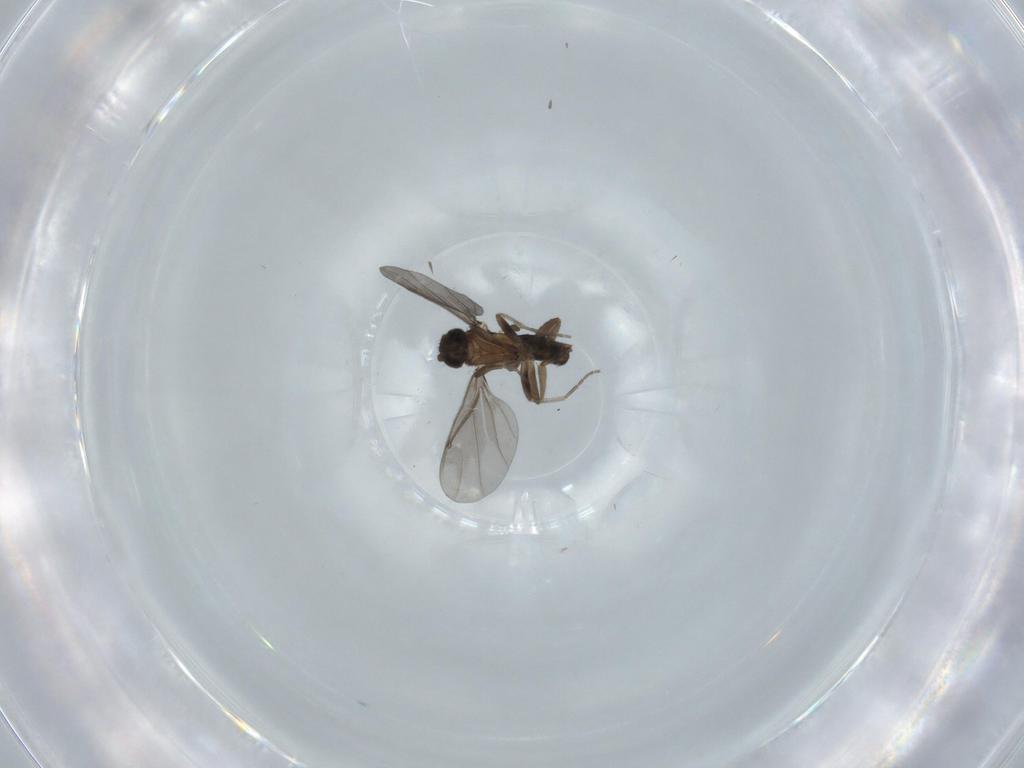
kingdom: Animalia
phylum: Arthropoda
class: Insecta
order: Diptera
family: Phoridae
